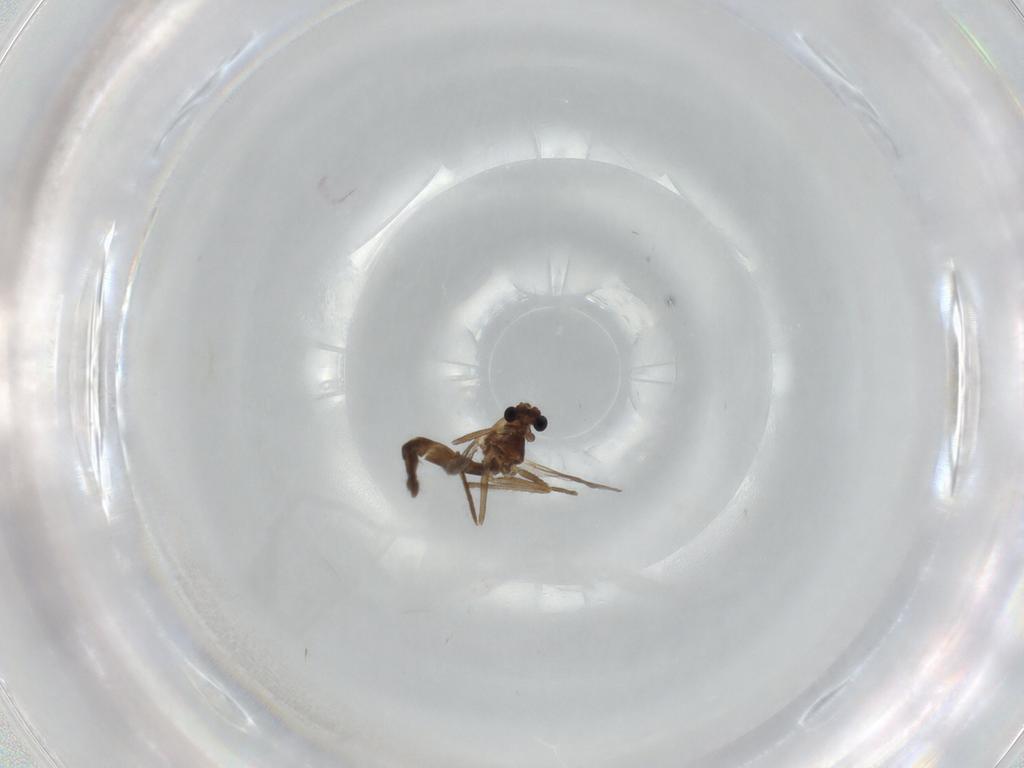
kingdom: Animalia
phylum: Arthropoda
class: Insecta
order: Diptera
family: Chironomidae
